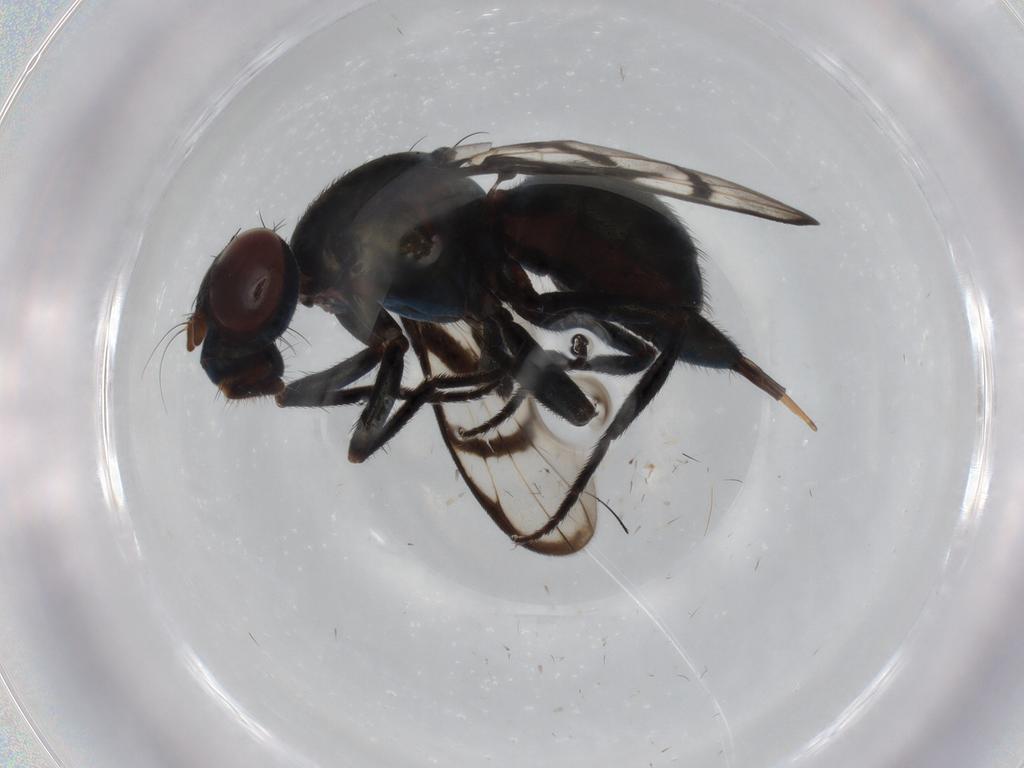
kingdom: Animalia
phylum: Arthropoda
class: Insecta
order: Diptera
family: Ulidiidae
